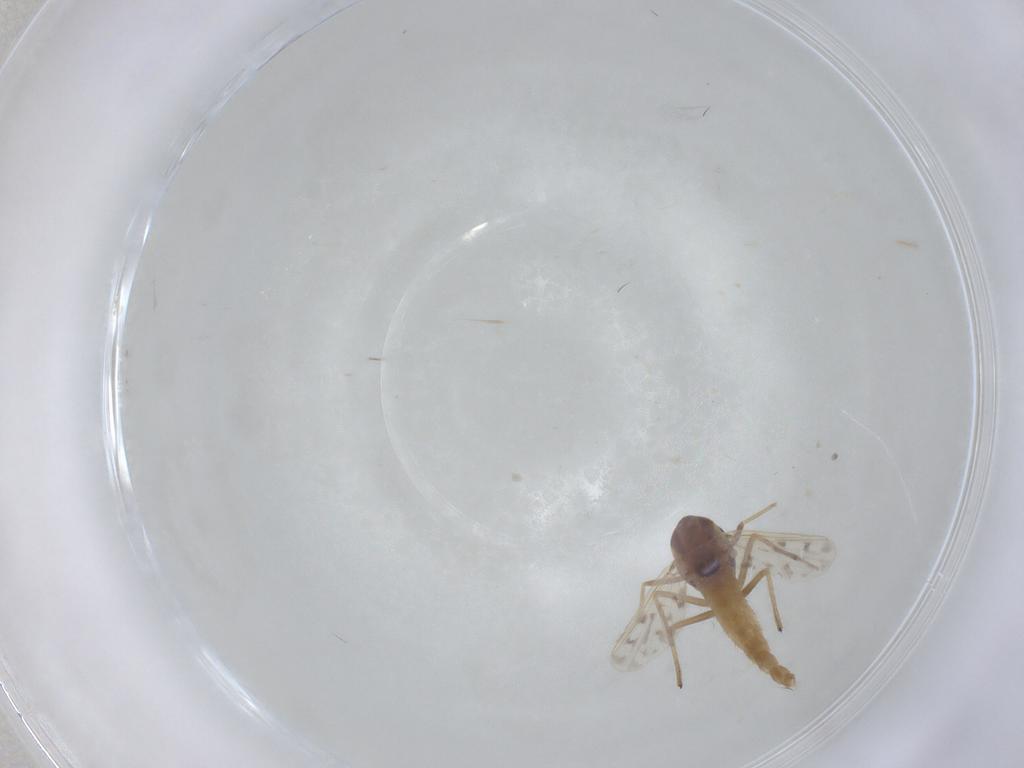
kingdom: Animalia
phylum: Arthropoda
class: Insecta
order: Diptera
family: Chironomidae
